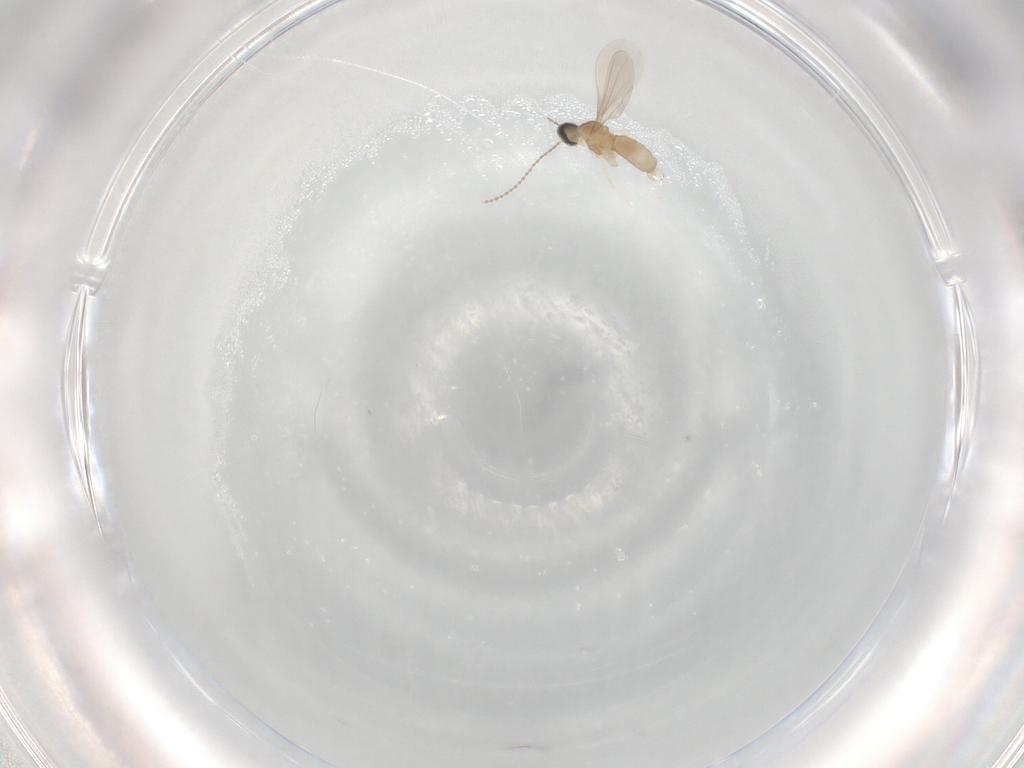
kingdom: Animalia
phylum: Arthropoda
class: Insecta
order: Diptera
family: Cecidomyiidae
